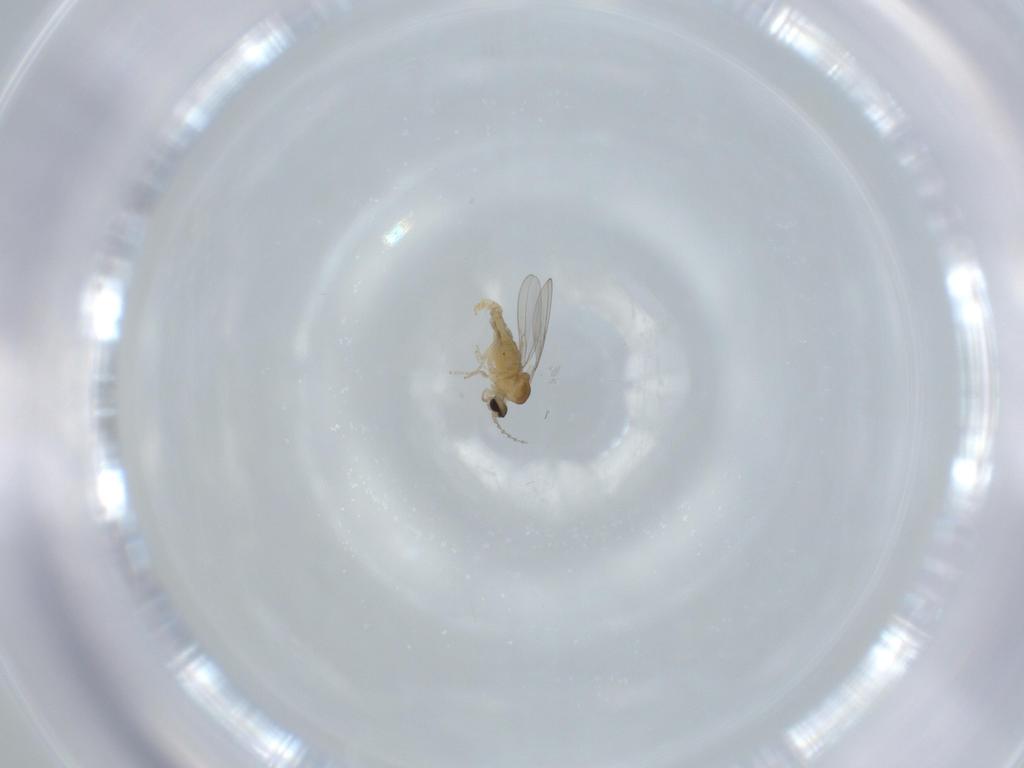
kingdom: Animalia
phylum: Arthropoda
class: Insecta
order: Diptera
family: Cecidomyiidae
